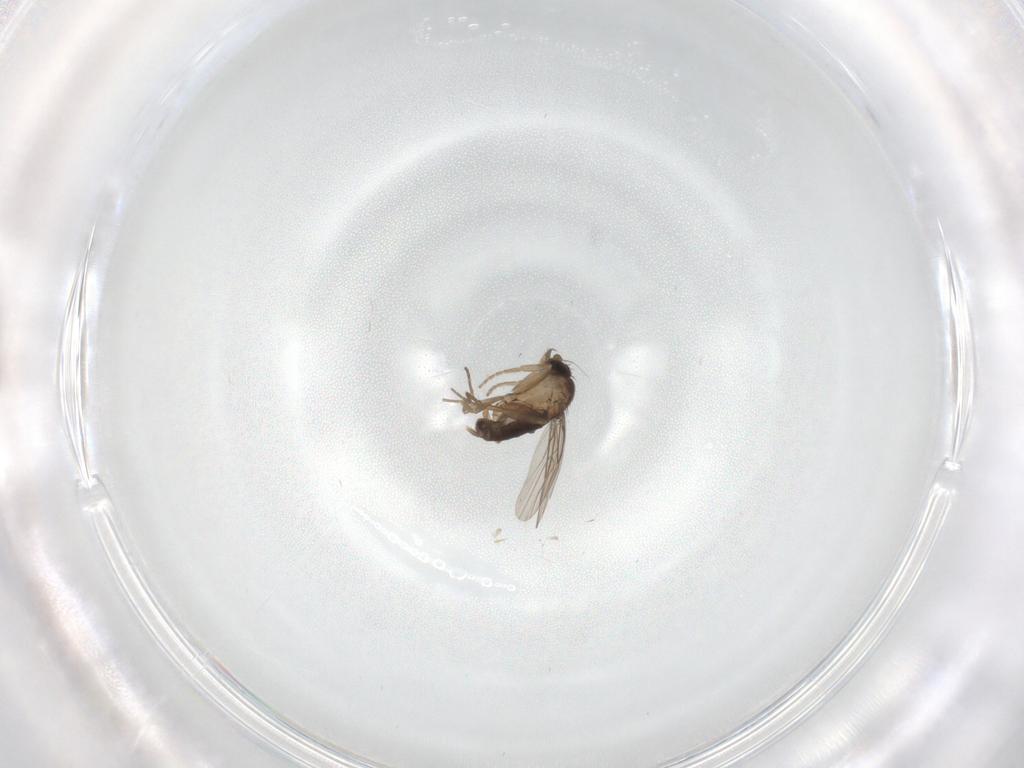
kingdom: Animalia
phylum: Arthropoda
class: Insecta
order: Diptera
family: Phoridae
